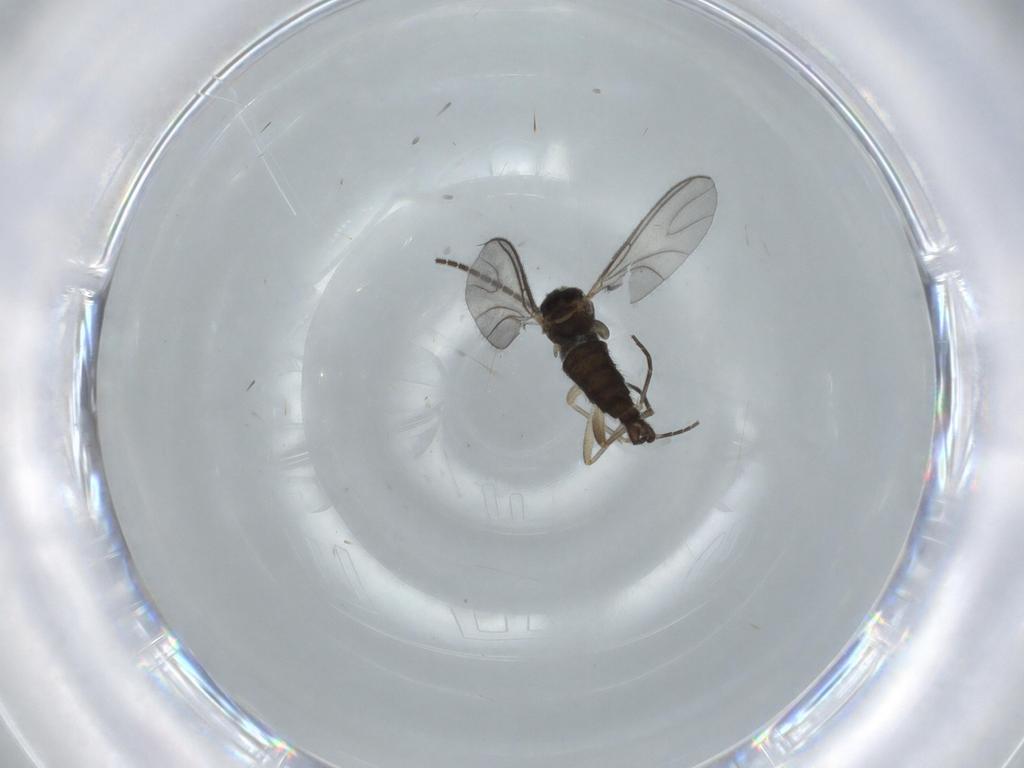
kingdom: Animalia
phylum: Arthropoda
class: Insecta
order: Diptera
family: Sciaridae
